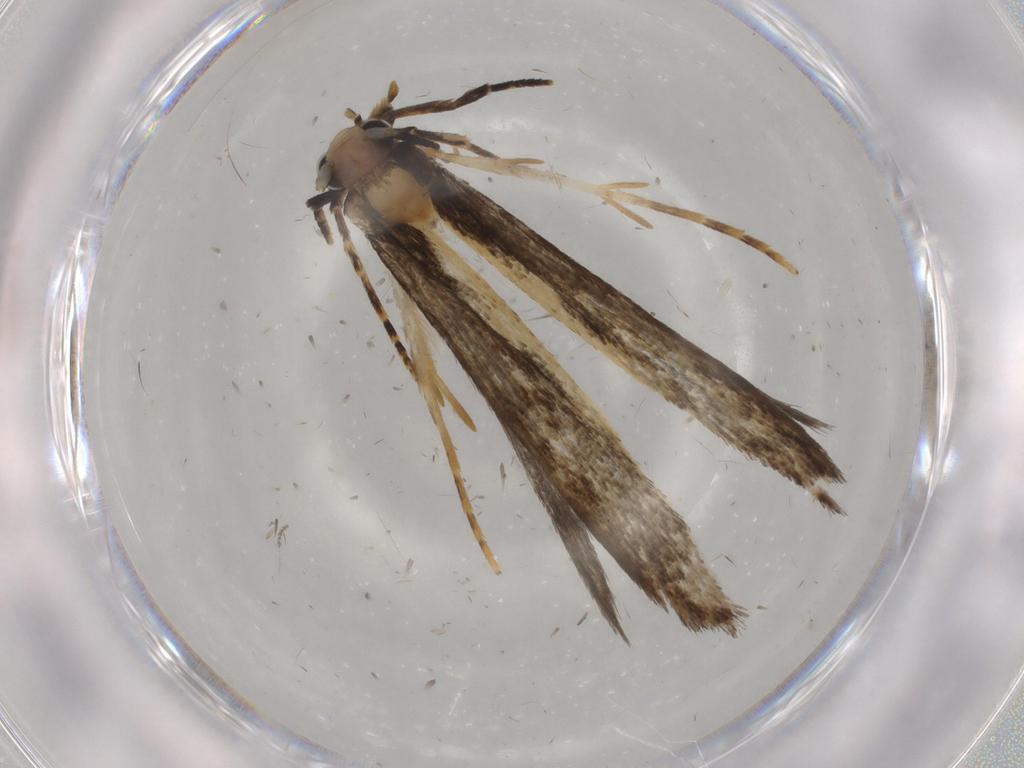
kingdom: Animalia
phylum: Arthropoda
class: Insecta
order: Lepidoptera
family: Tineidae
